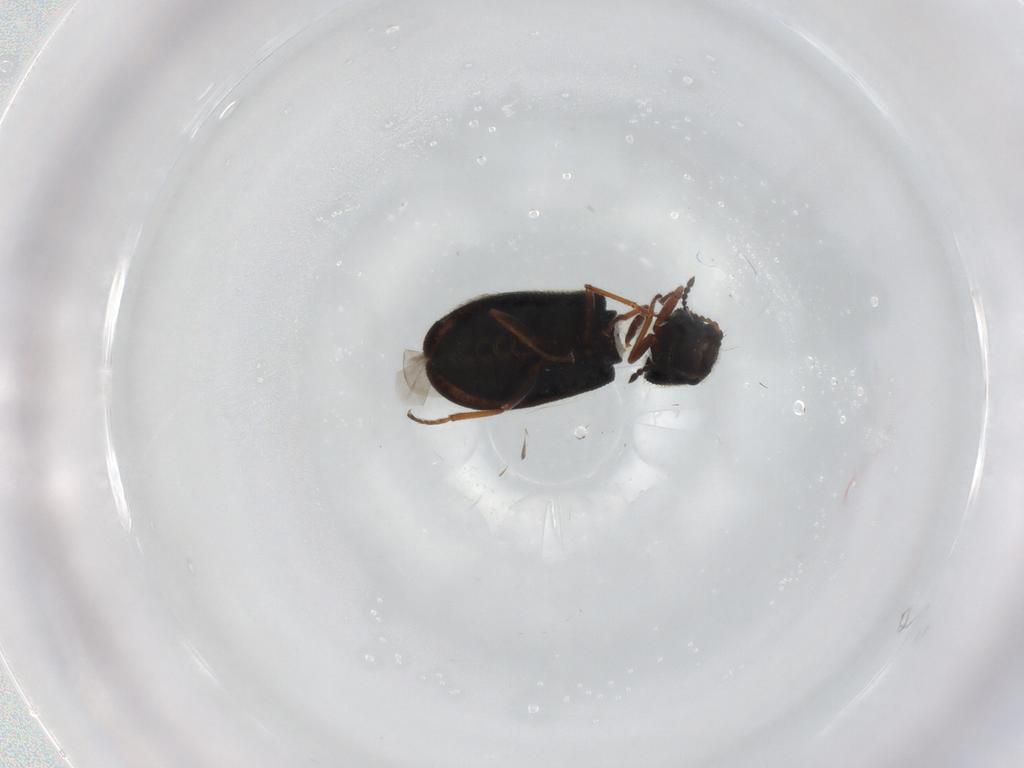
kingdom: Animalia
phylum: Arthropoda
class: Insecta
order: Coleoptera
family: Melyridae
